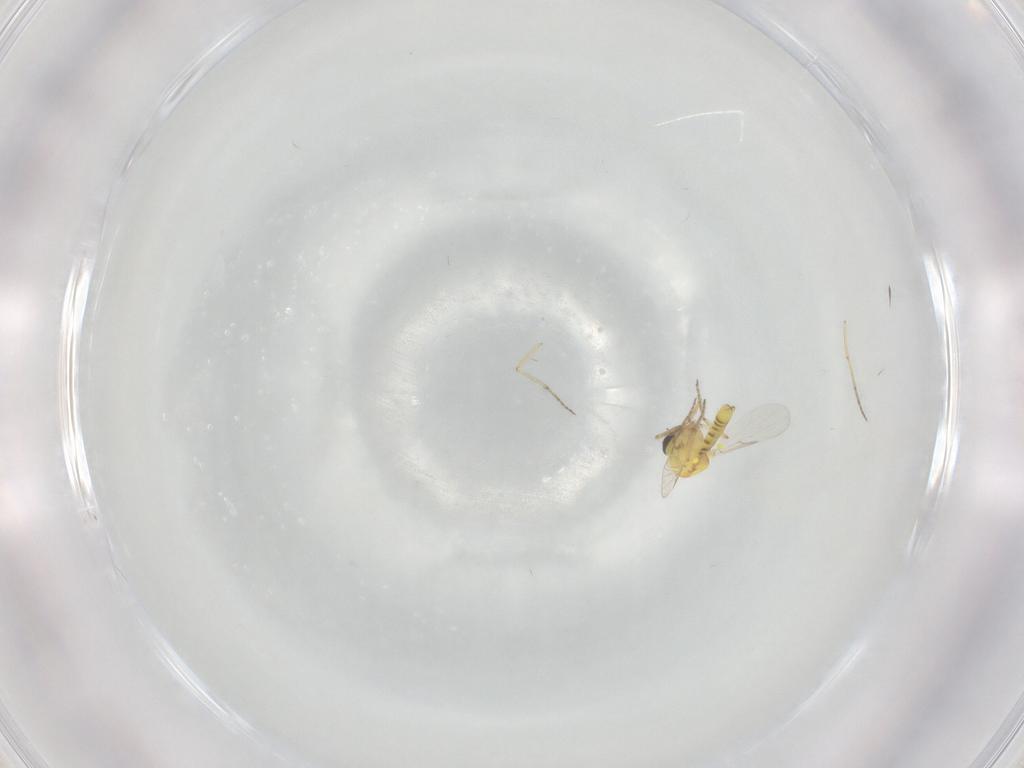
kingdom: Animalia
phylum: Arthropoda
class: Insecta
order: Diptera
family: Ceratopogonidae
